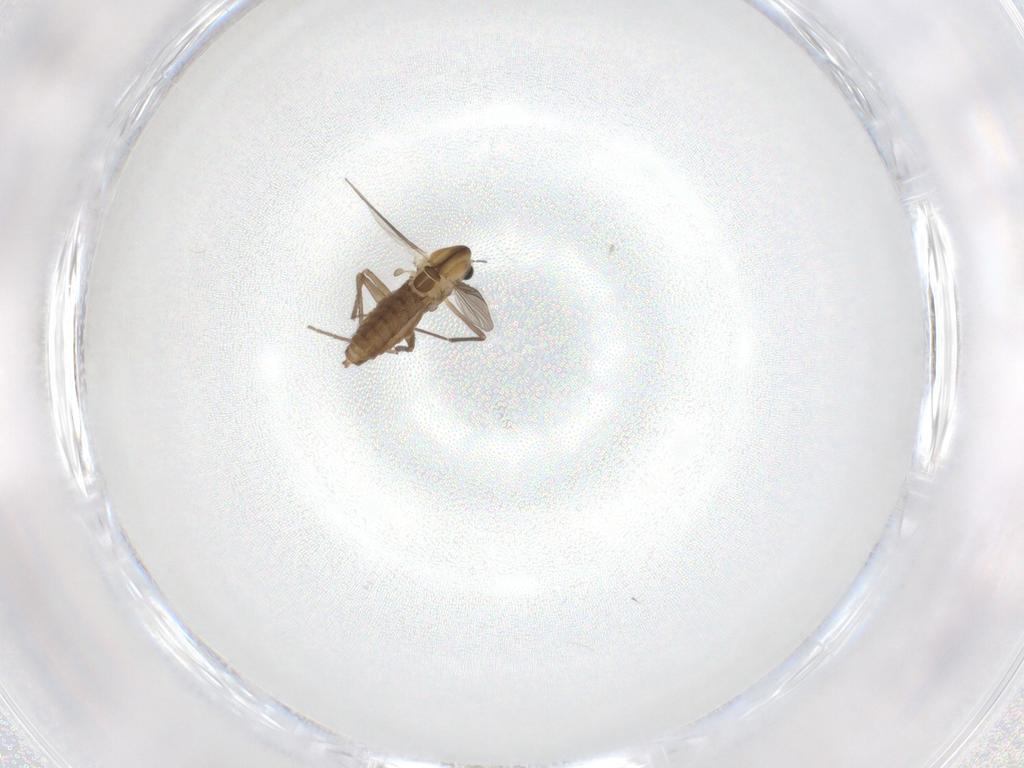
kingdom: Animalia
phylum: Arthropoda
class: Insecta
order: Diptera
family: Chironomidae
